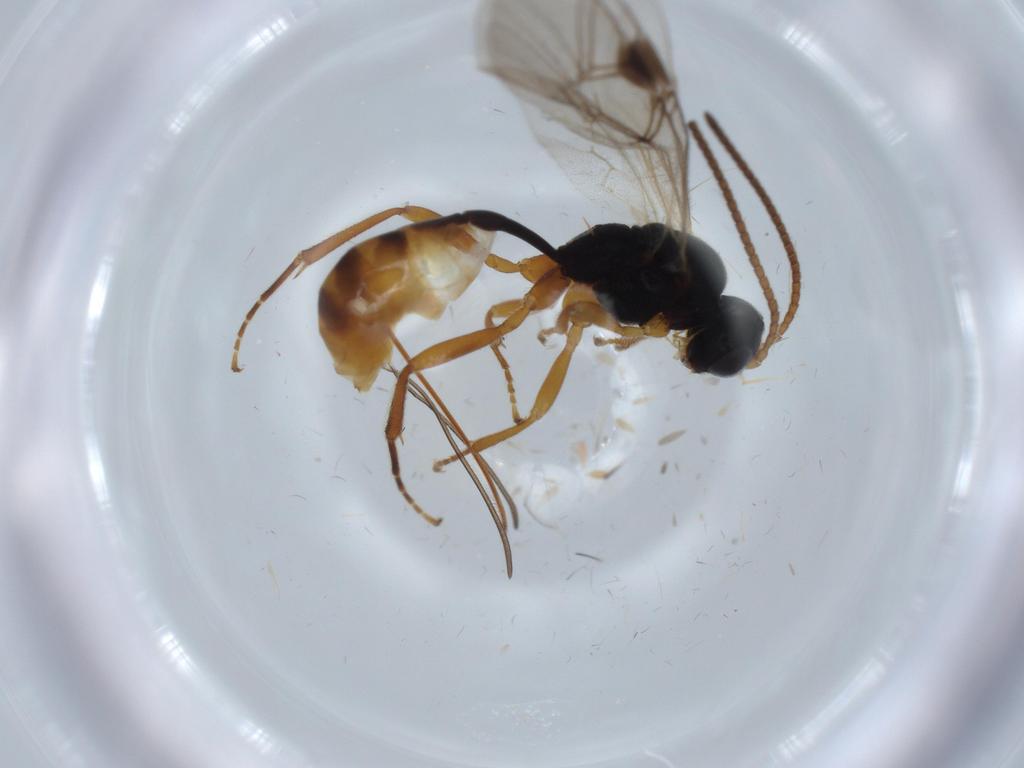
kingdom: Animalia
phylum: Arthropoda
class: Insecta
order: Hymenoptera
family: Ichneumonidae
